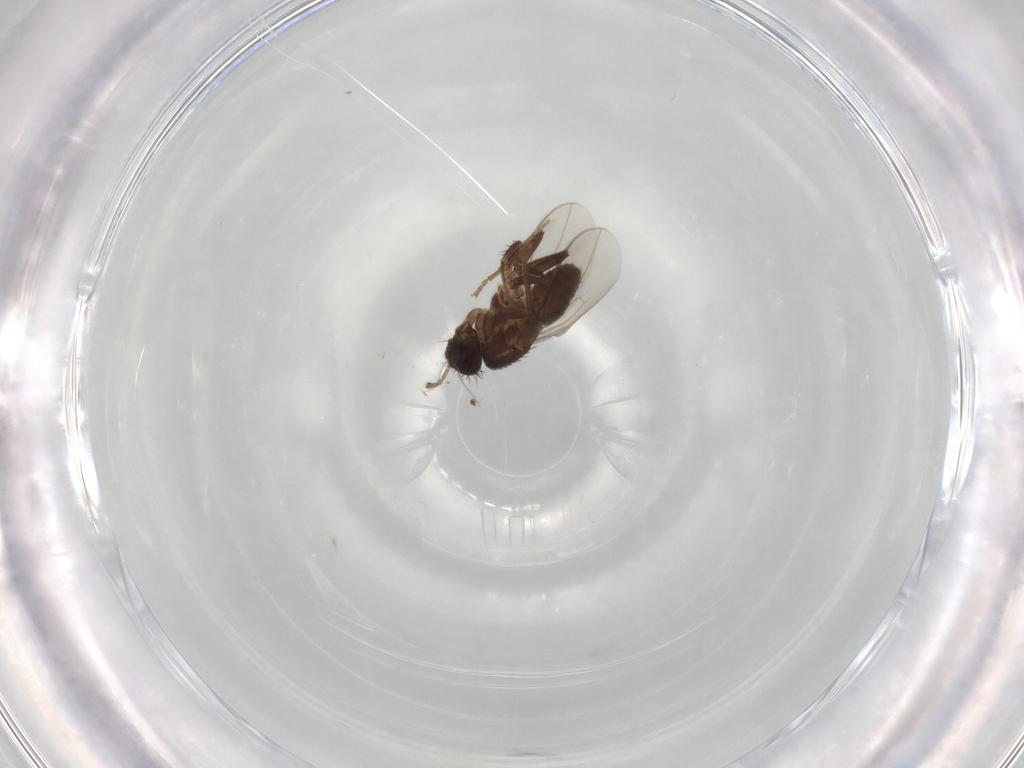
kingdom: Animalia
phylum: Arthropoda
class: Insecta
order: Diptera
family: Sphaeroceridae
